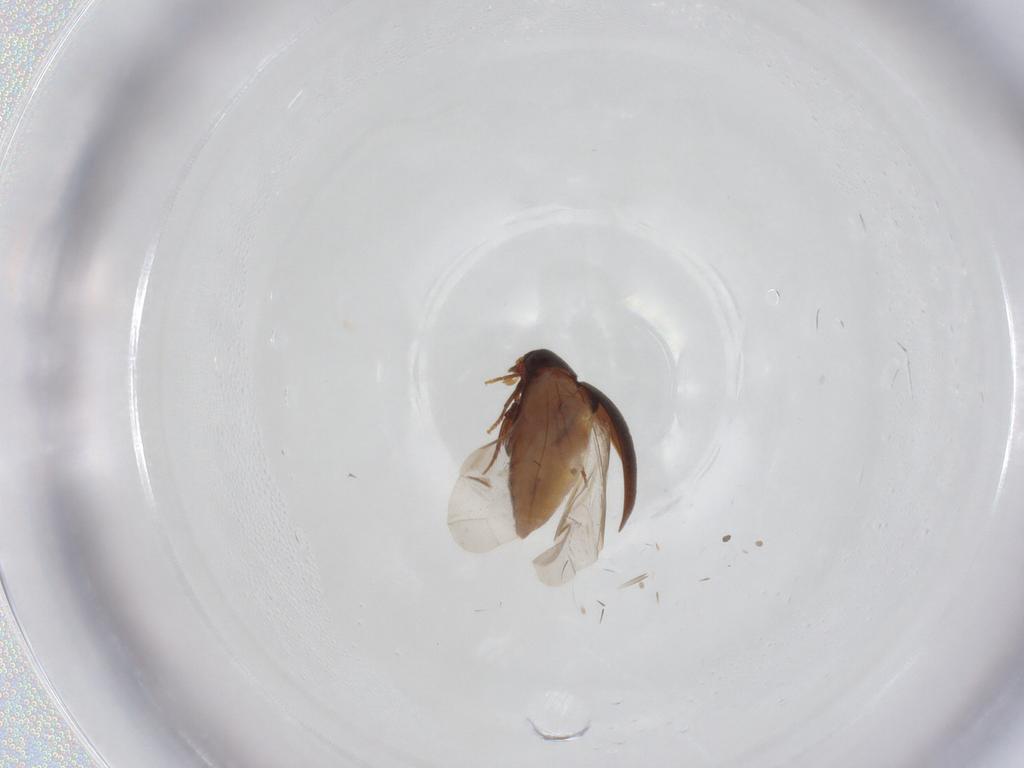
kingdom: Animalia
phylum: Arthropoda
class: Insecta
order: Coleoptera
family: Melandryidae
